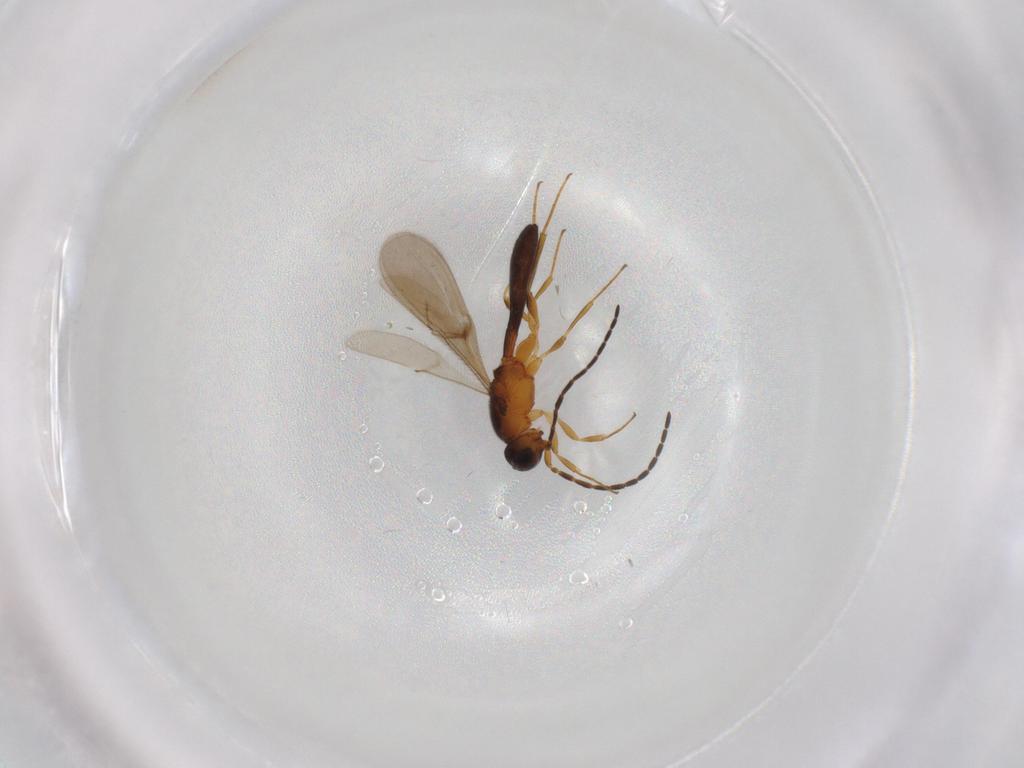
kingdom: Animalia
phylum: Arthropoda
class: Insecta
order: Hymenoptera
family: Scelionidae
